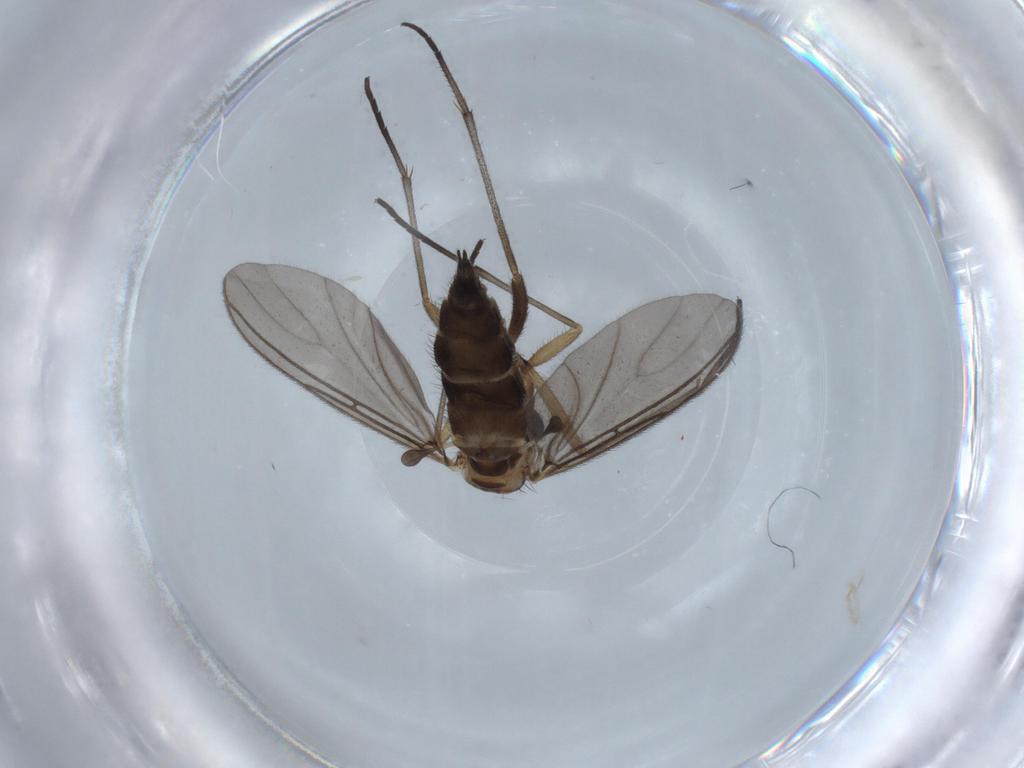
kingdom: Animalia
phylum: Arthropoda
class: Insecta
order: Diptera
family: Sciaridae
